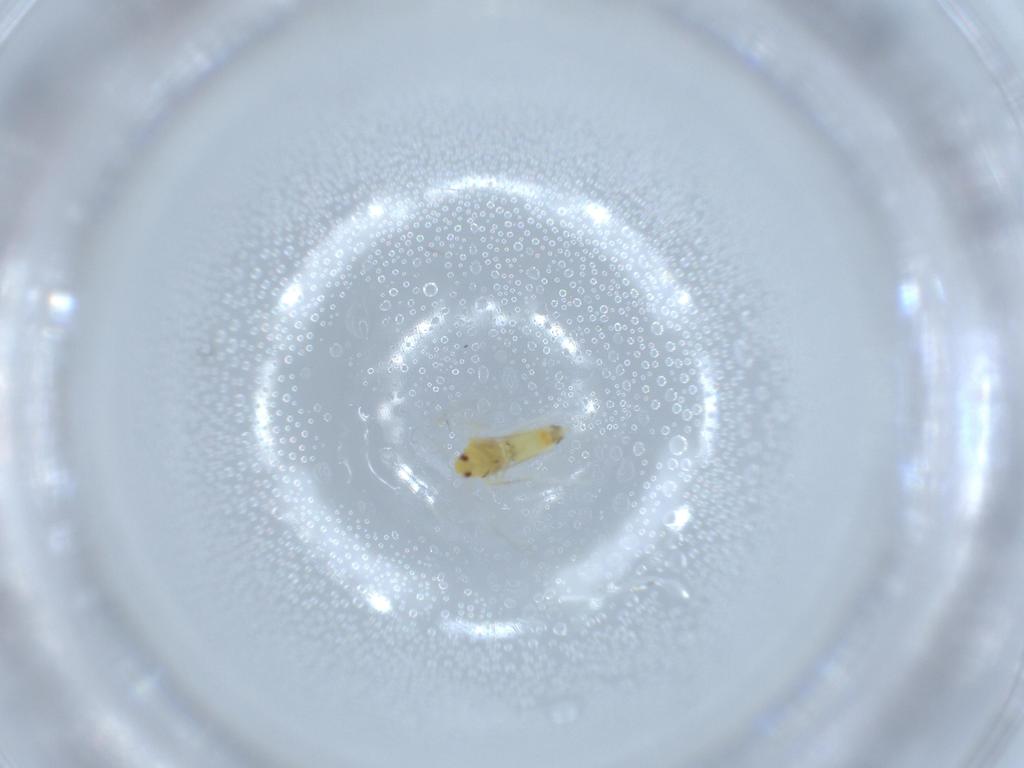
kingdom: Animalia
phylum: Arthropoda
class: Insecta
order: Hemiptera
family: Aleyrodidae
